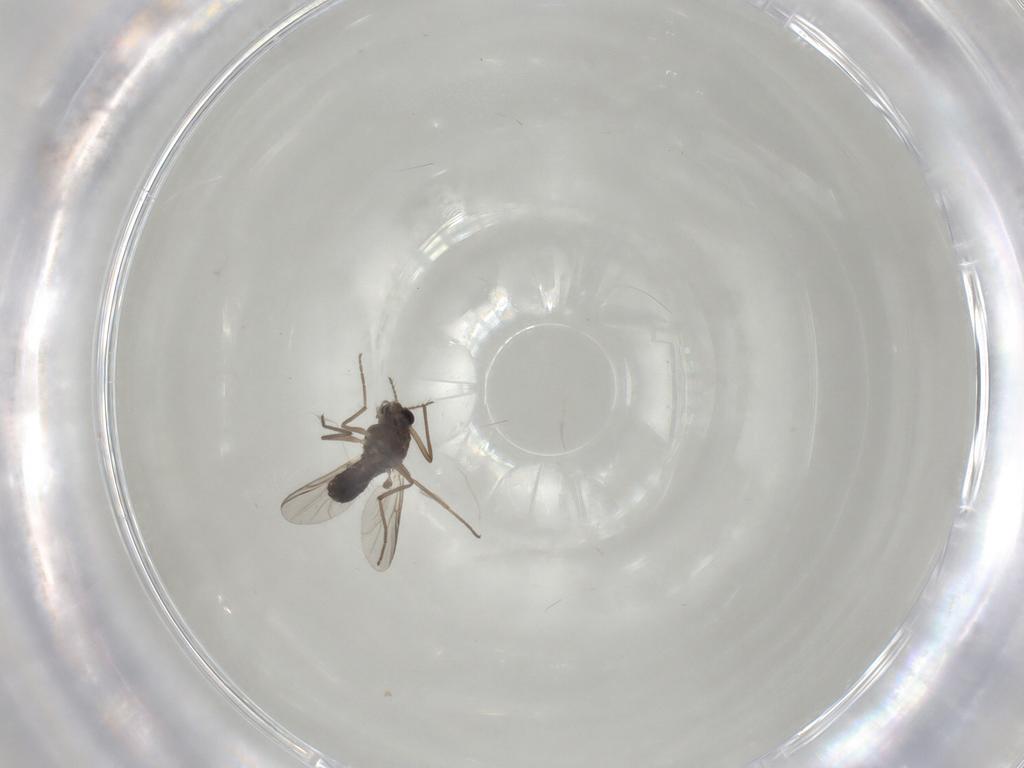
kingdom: Animalia
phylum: Arthropoda
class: Insecta
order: Diptera
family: Chironomidae
